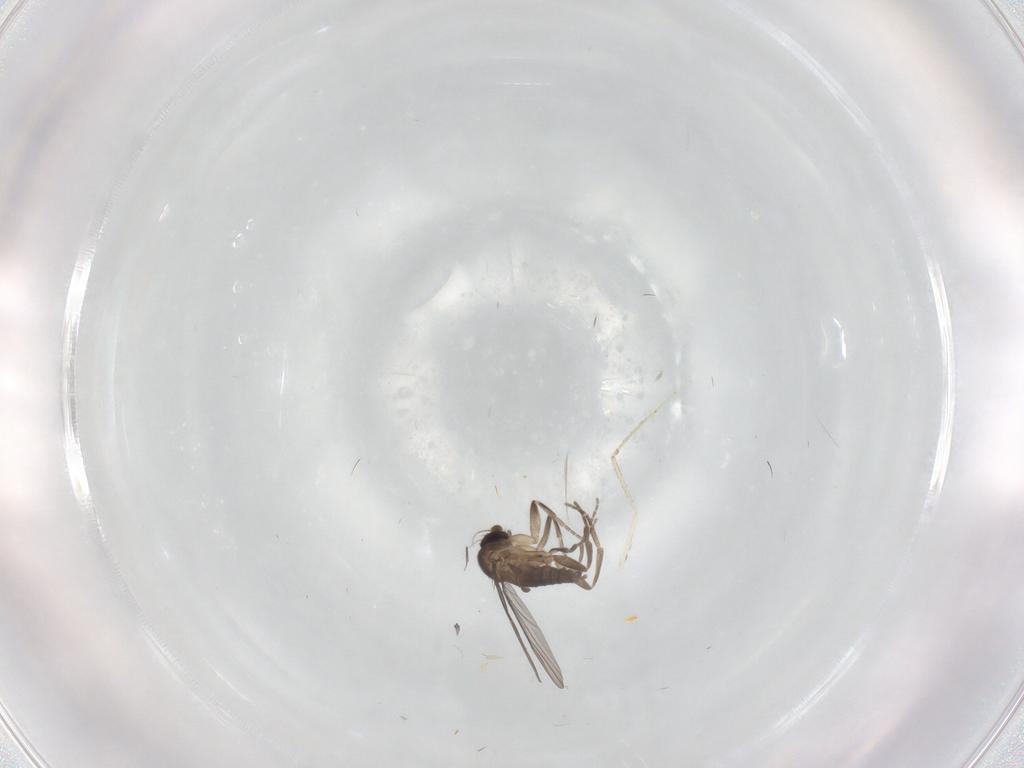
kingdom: Animalia
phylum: Arthropoda
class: Insecta
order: Diptera
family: Phoridae
